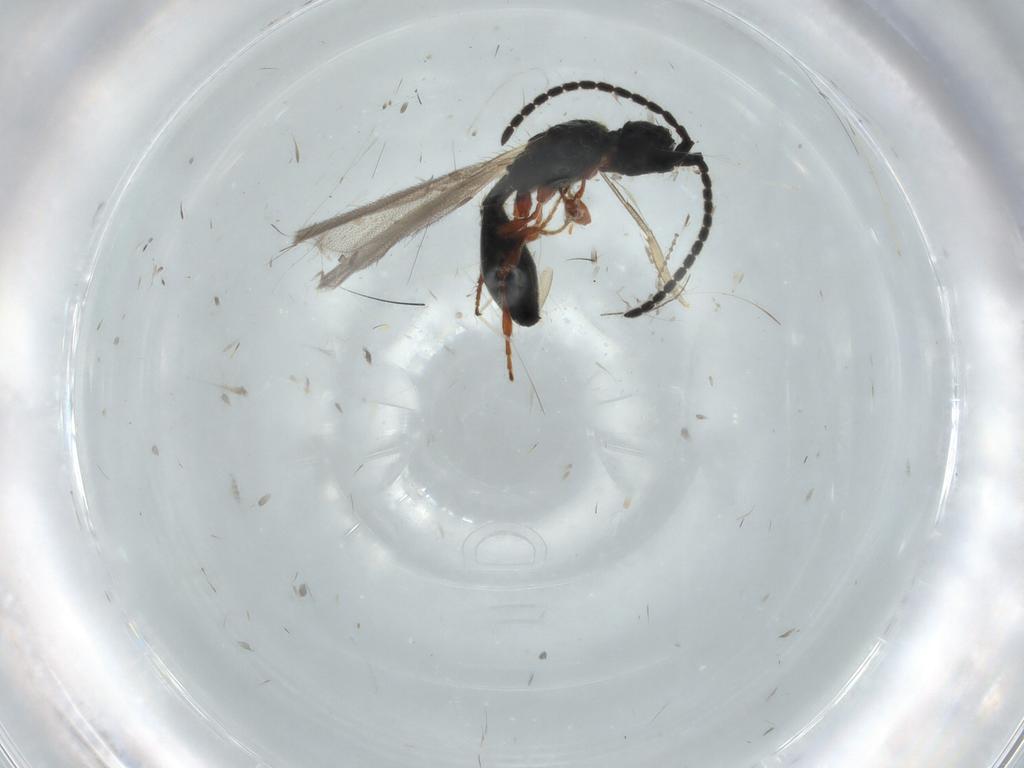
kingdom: Animalia
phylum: Arthropoda
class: Insecta
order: Hymenoptera
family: Diapriidae
